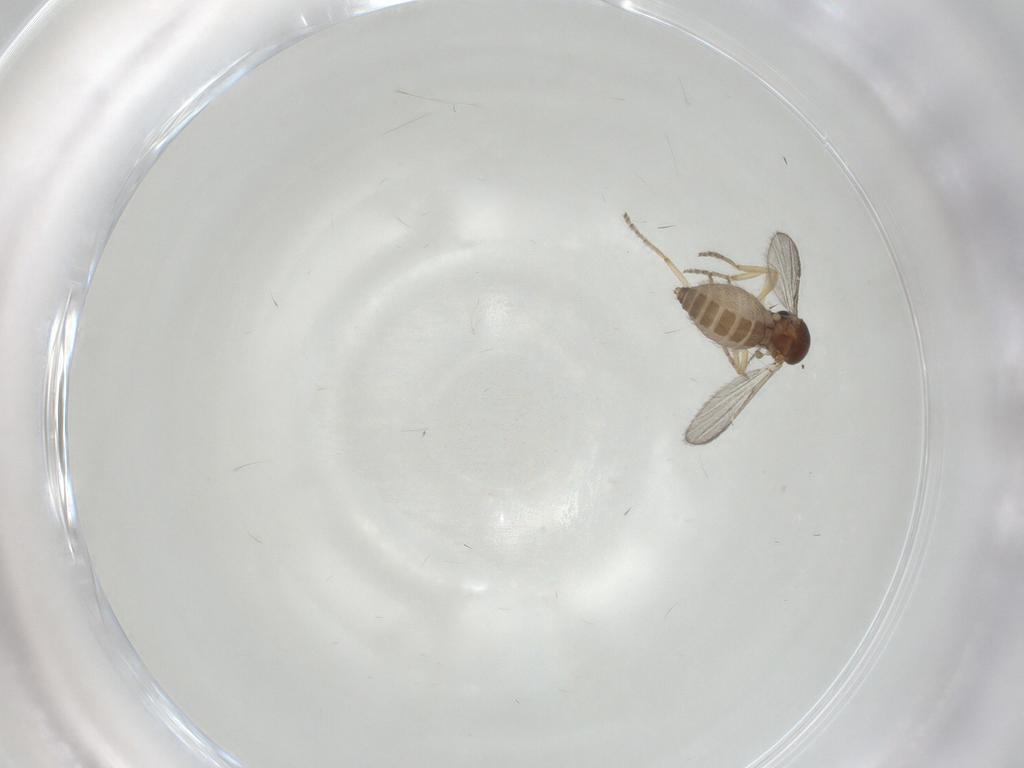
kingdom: Animalia
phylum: Arthropoda
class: Insecta
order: Diptera
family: Ceratopogonidae
